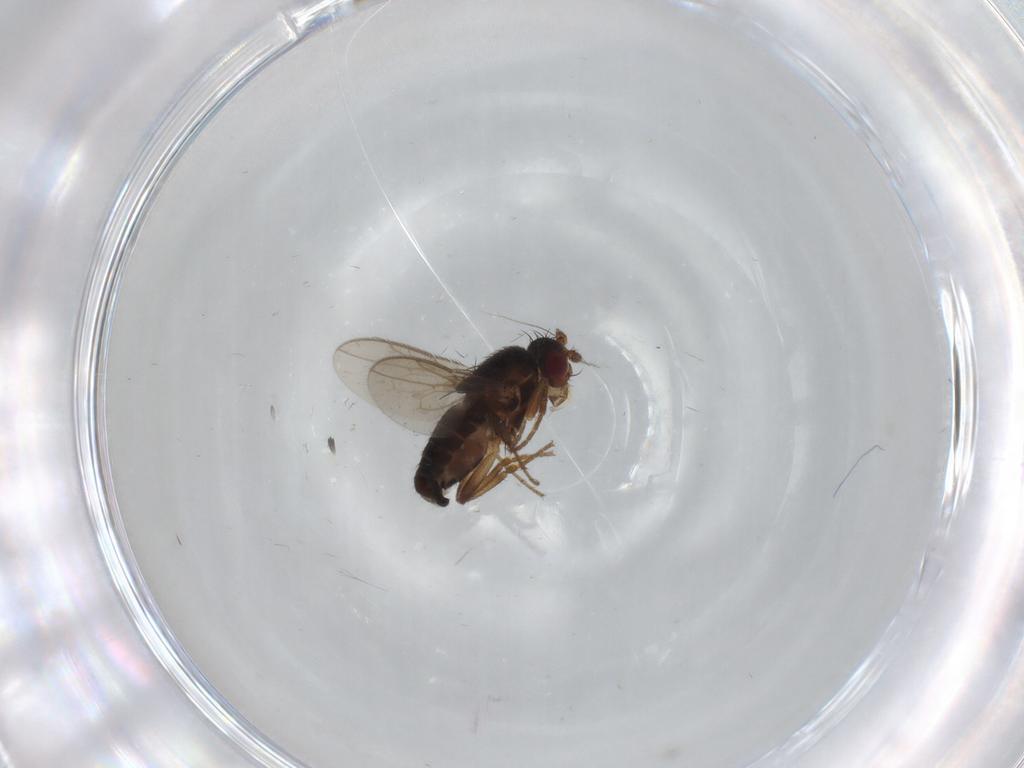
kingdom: Animalia
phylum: Arthropoda
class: Insecta
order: Diptera
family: Sphaeroceridae
